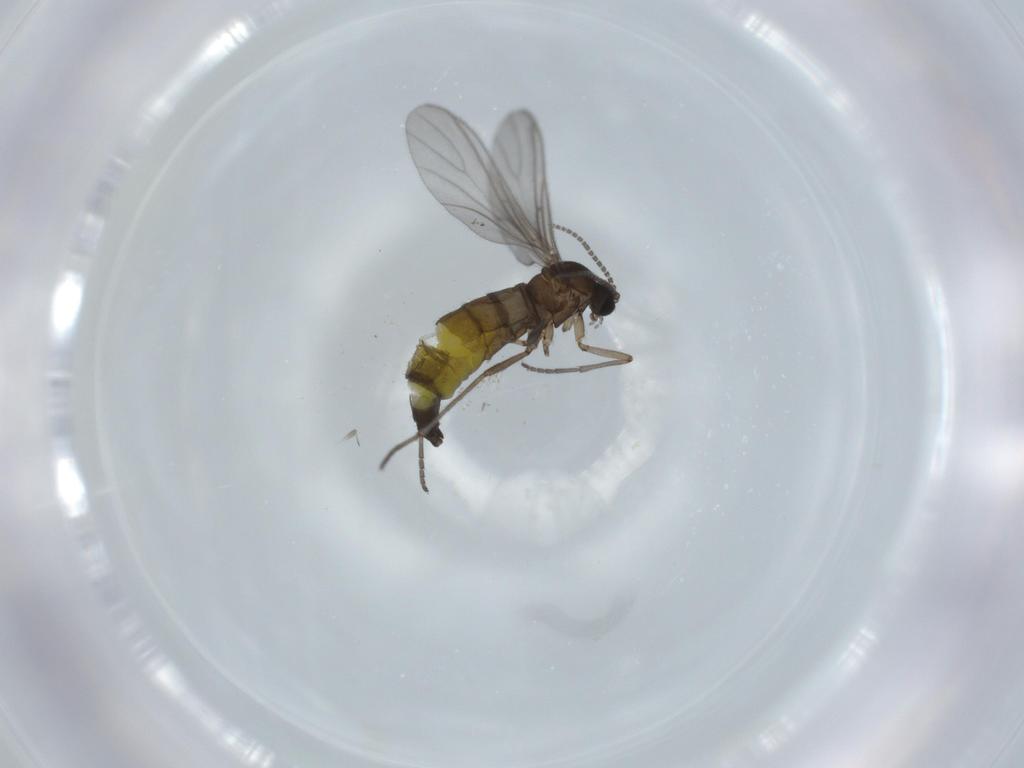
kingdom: Animalia
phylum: Arthropoda
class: Insecta
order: Diptera
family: Sciaridae
